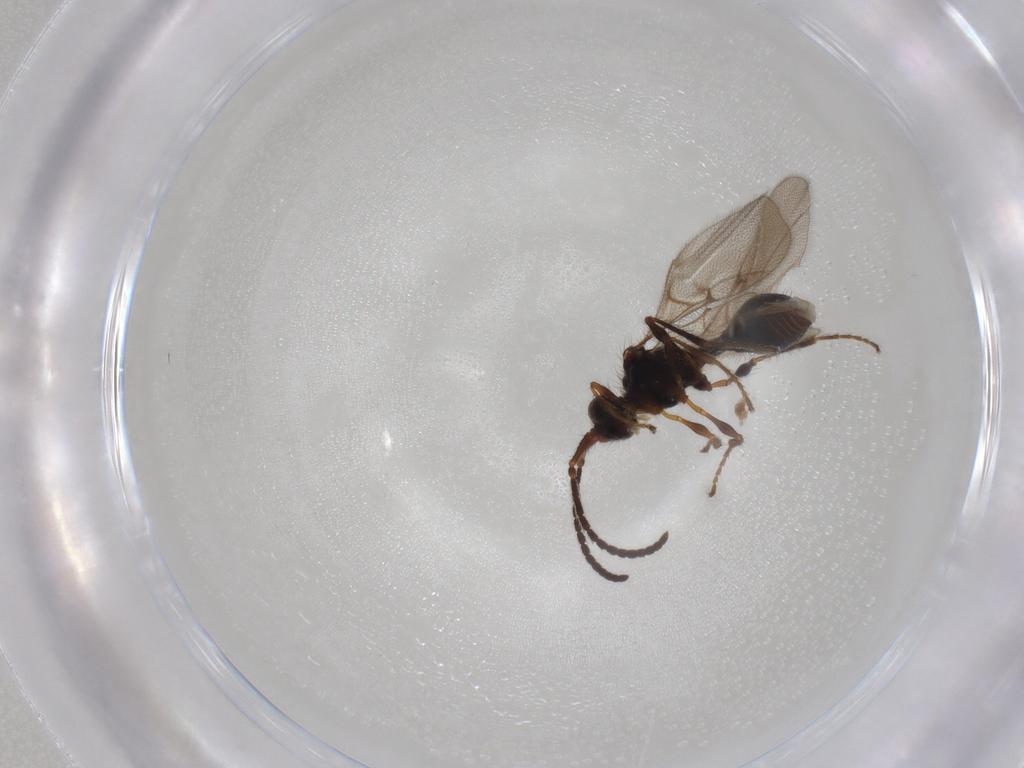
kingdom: Animalia
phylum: Arthropoda
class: Insecta
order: Hymenoptera
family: Diapriidae
